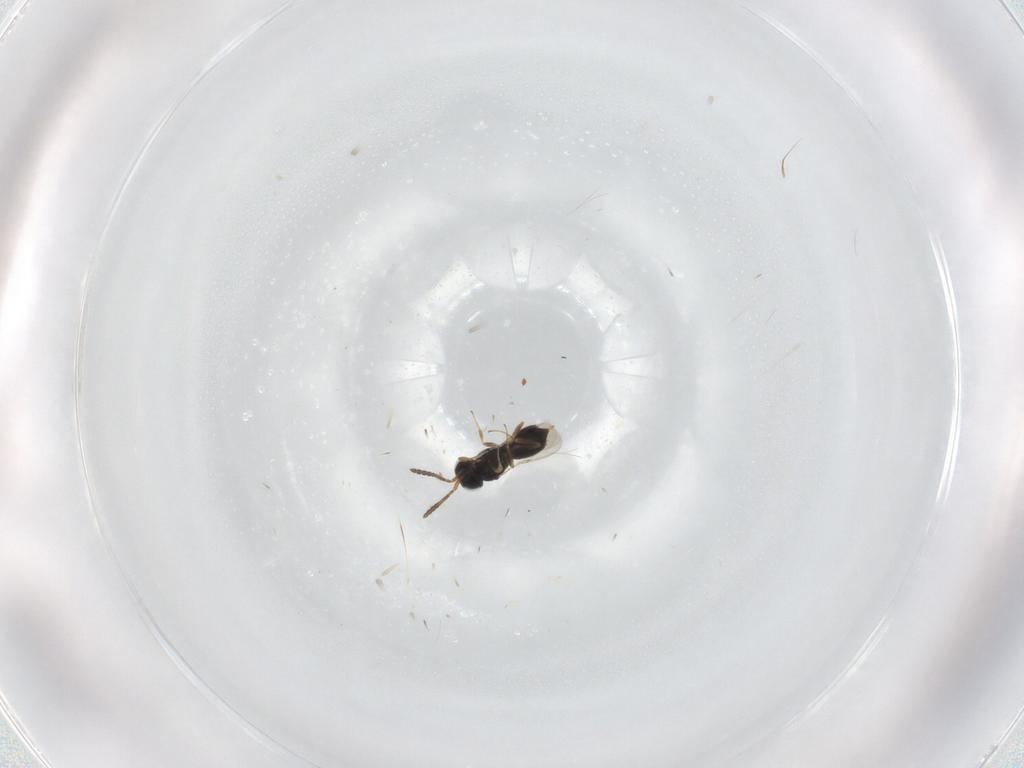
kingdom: Animalia
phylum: Arthropoda
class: Insecta
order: Hymenoptera
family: Scelionidae
